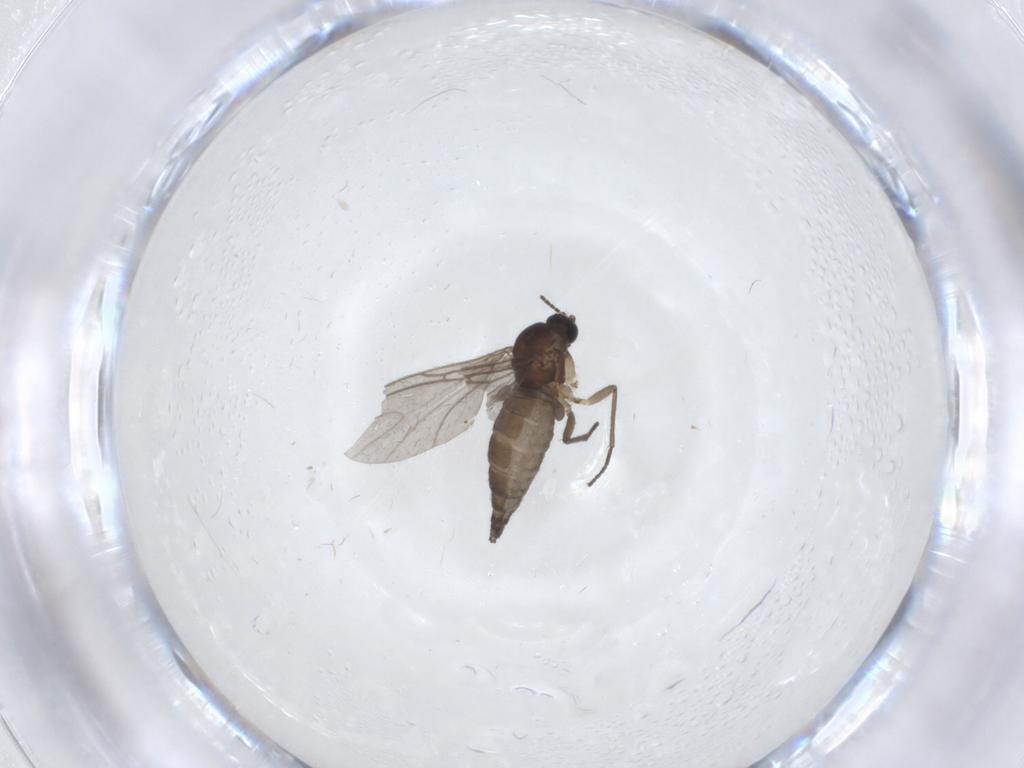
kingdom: Animalia
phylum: Arthropoda
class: Insecta
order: Diptera
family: Sciaridae
